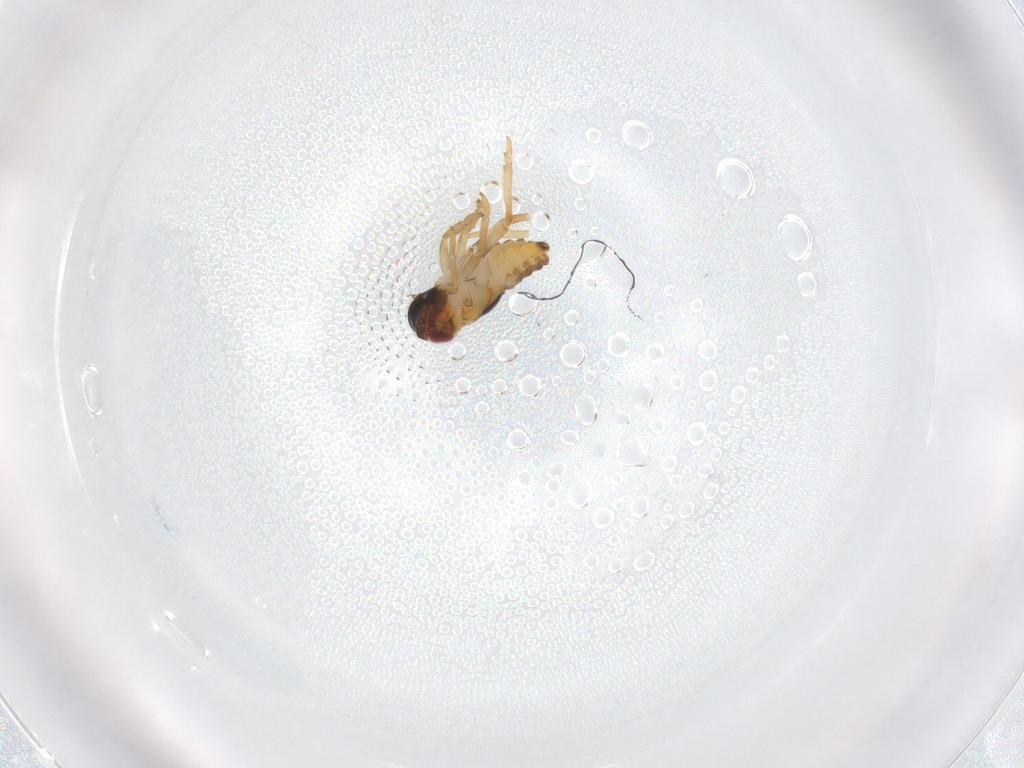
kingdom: Animalia
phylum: Arthropoda
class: Insecta
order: Hemiptera
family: Fulgoroidea_incertae_sedis
